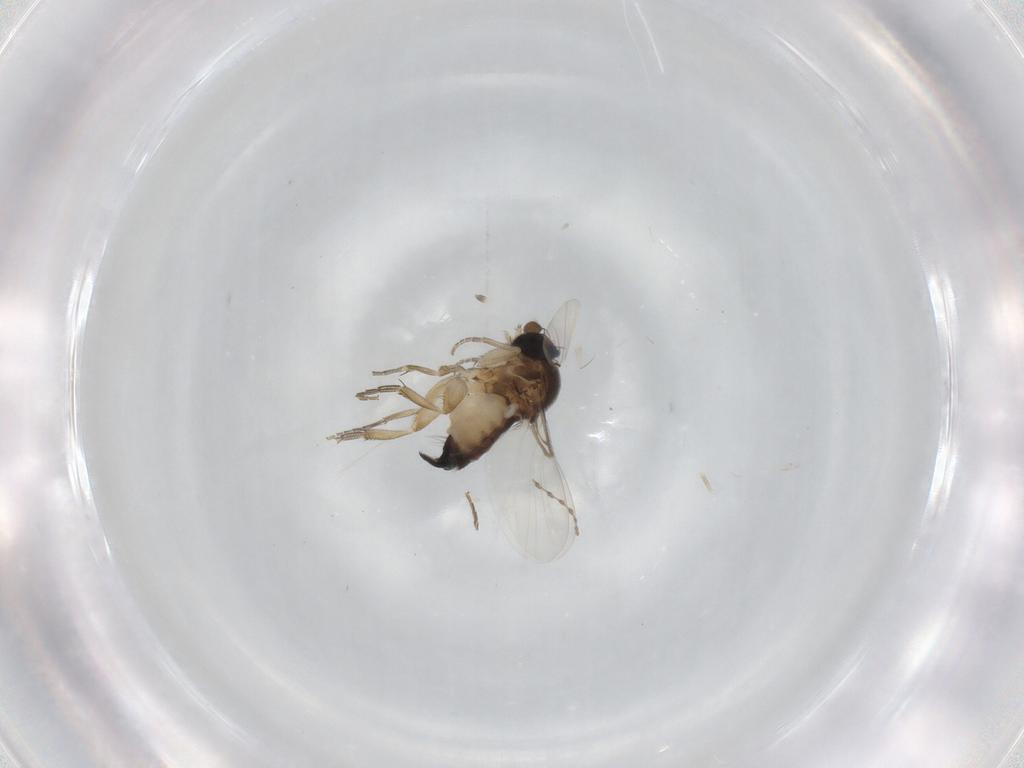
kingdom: Animalia
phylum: Arthropoda
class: Insecta
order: Diptera
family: Phoridae
